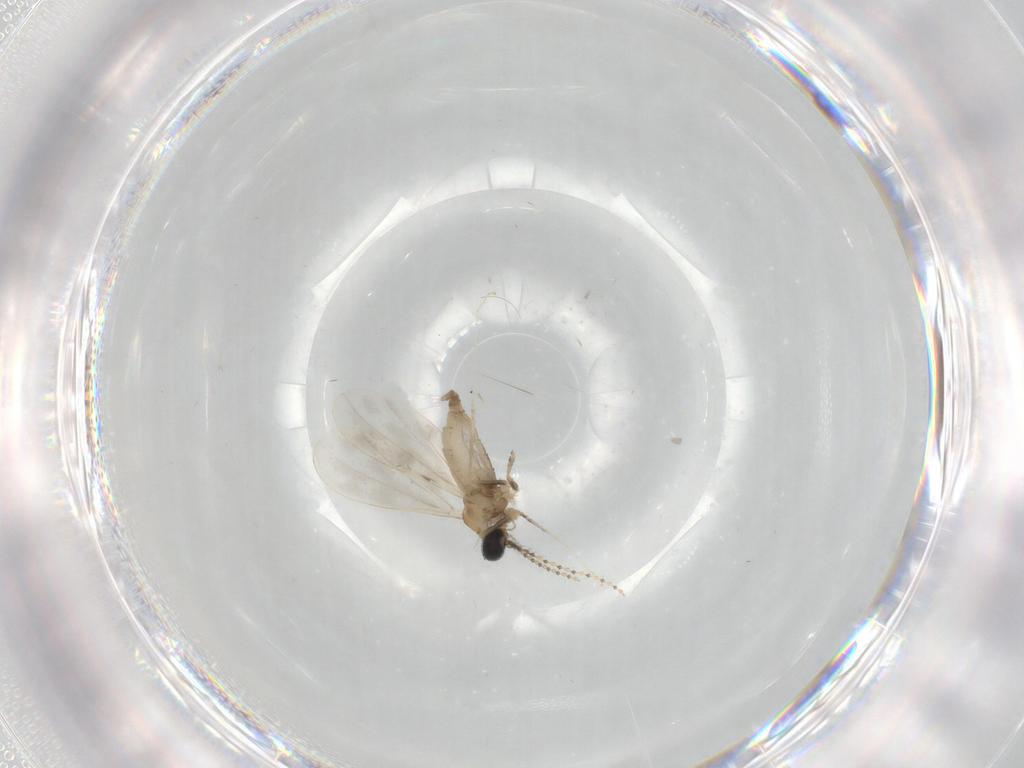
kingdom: Animalia
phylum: Arthropoda
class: Insecta
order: Diptera
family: Cecidomyiidae
